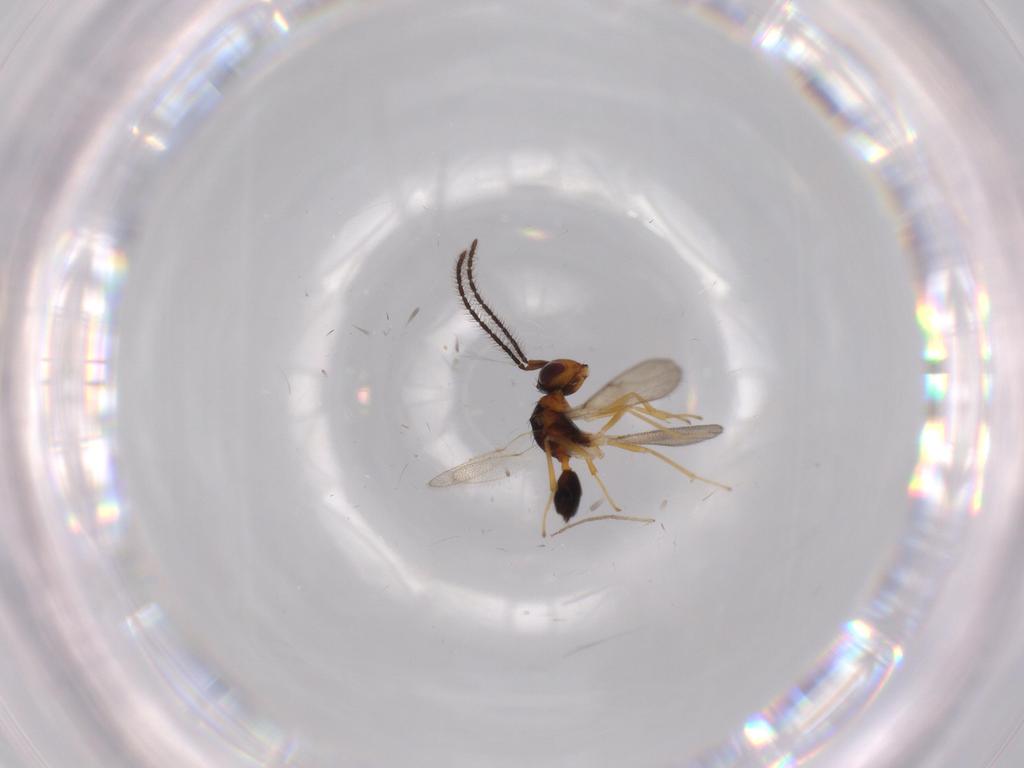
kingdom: Animalia
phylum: Arthropoda
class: Insecta
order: Hymenoptera
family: Diparidae
